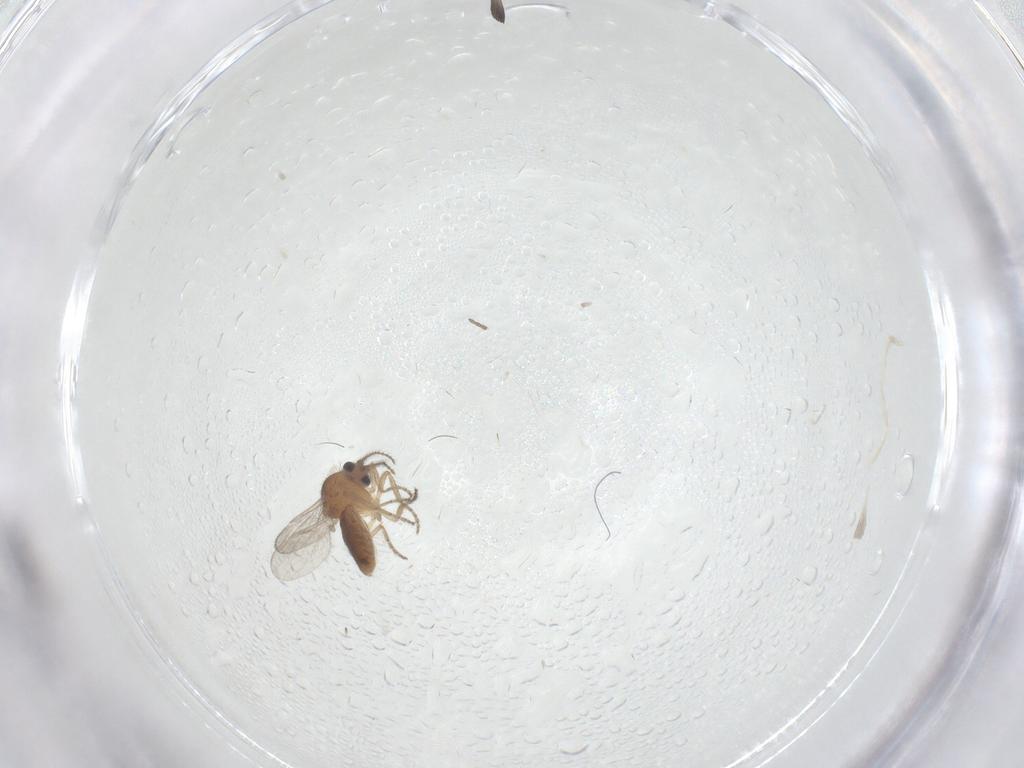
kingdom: Animalia
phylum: Arthropoda
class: Insecta
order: Diptera
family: Ceratopogonidae
